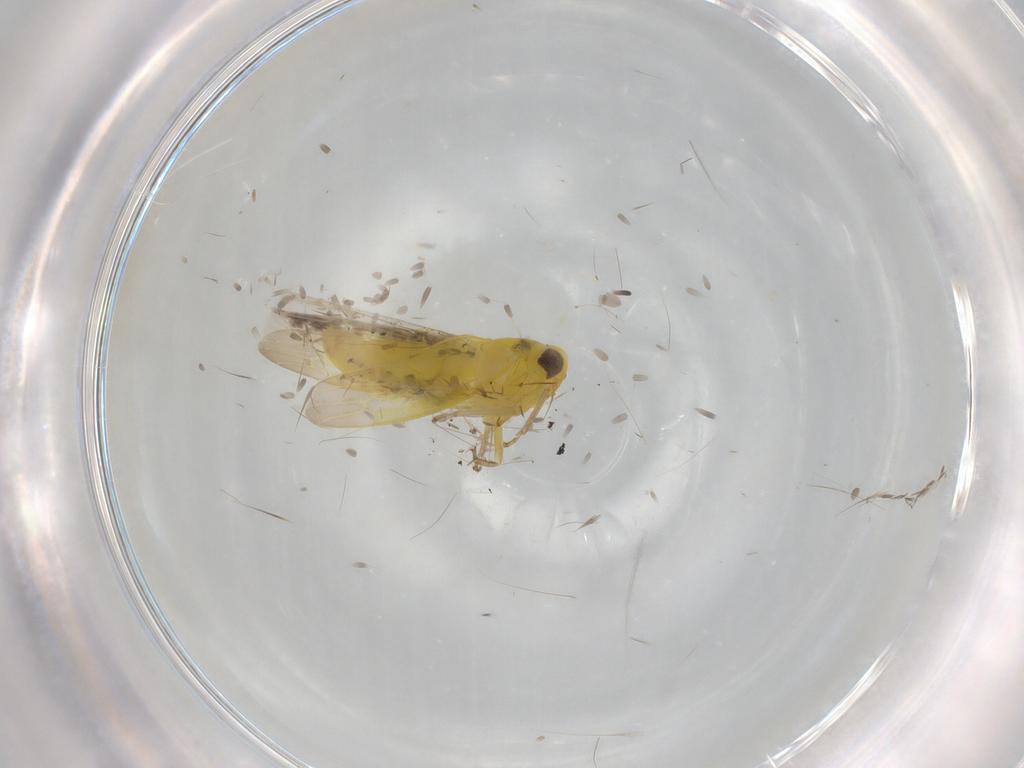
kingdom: Animalia
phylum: Arthropoda
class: Insecta
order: Hemiptera
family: Cicadellidae
